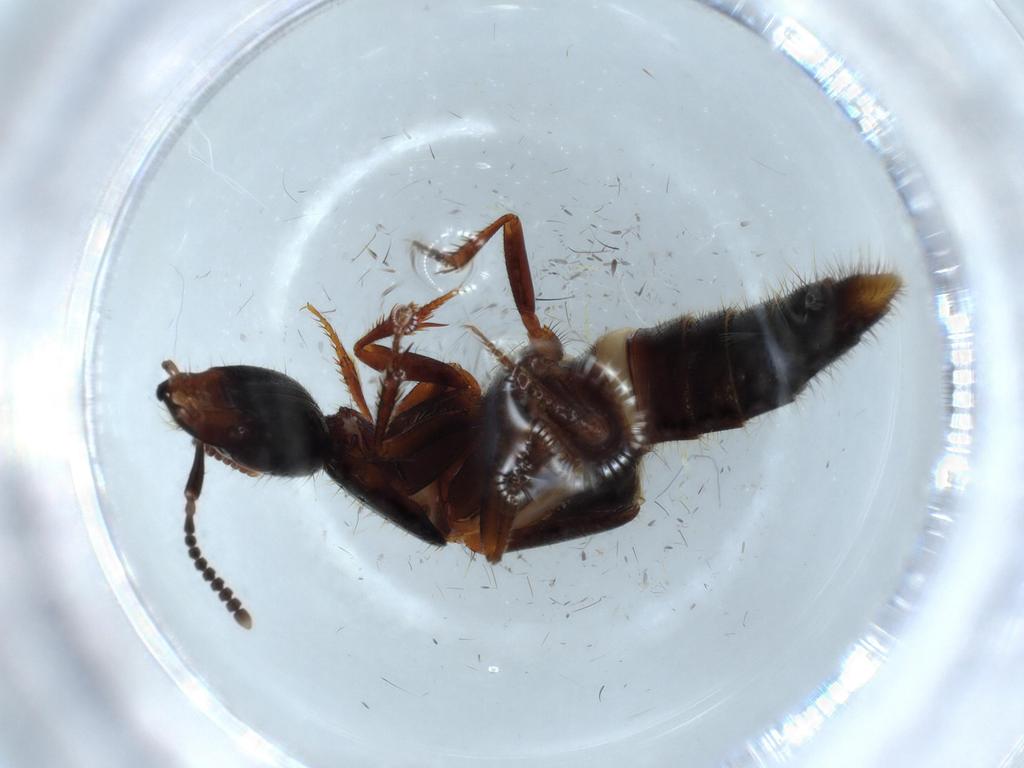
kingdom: Animalia
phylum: Arthropoda
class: Insecta
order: Coleoptera
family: Staphylinidae
